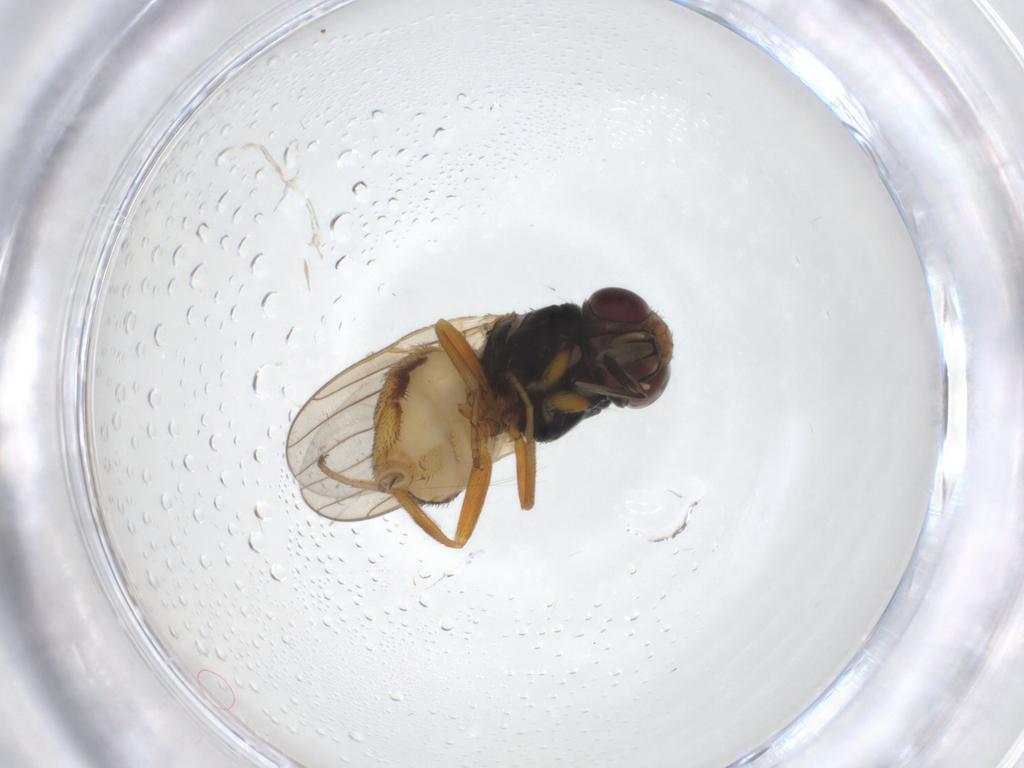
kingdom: Animalia
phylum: Arthropoda
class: Insecta
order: Diptera
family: Chloropidae
